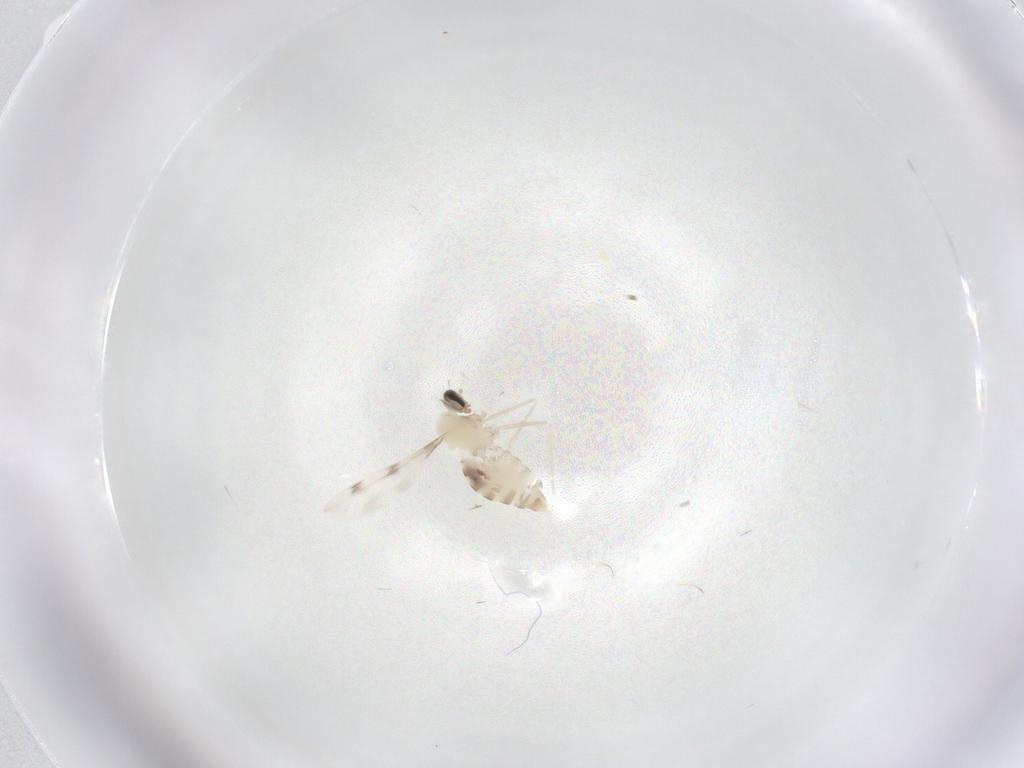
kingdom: Animalia
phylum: Arthropoda
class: Insecta
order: Diptera
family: Cecidomyiidae
